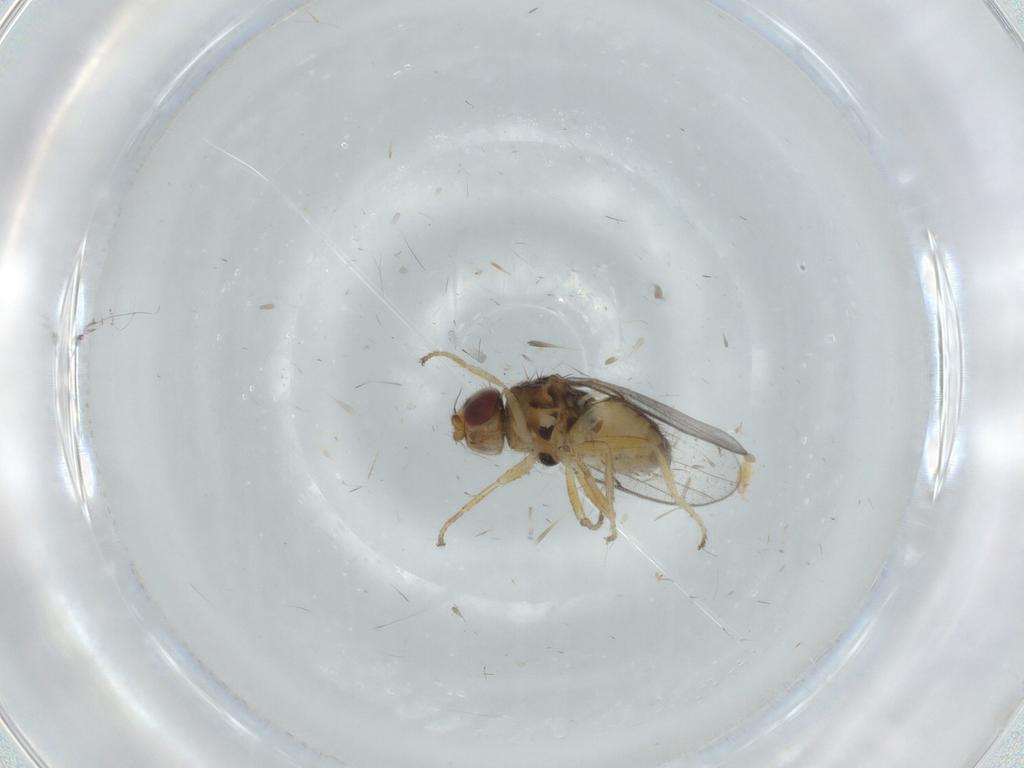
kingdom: Animalia
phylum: Arthropoda
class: Insecta
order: Diptera
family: Chloropidae
